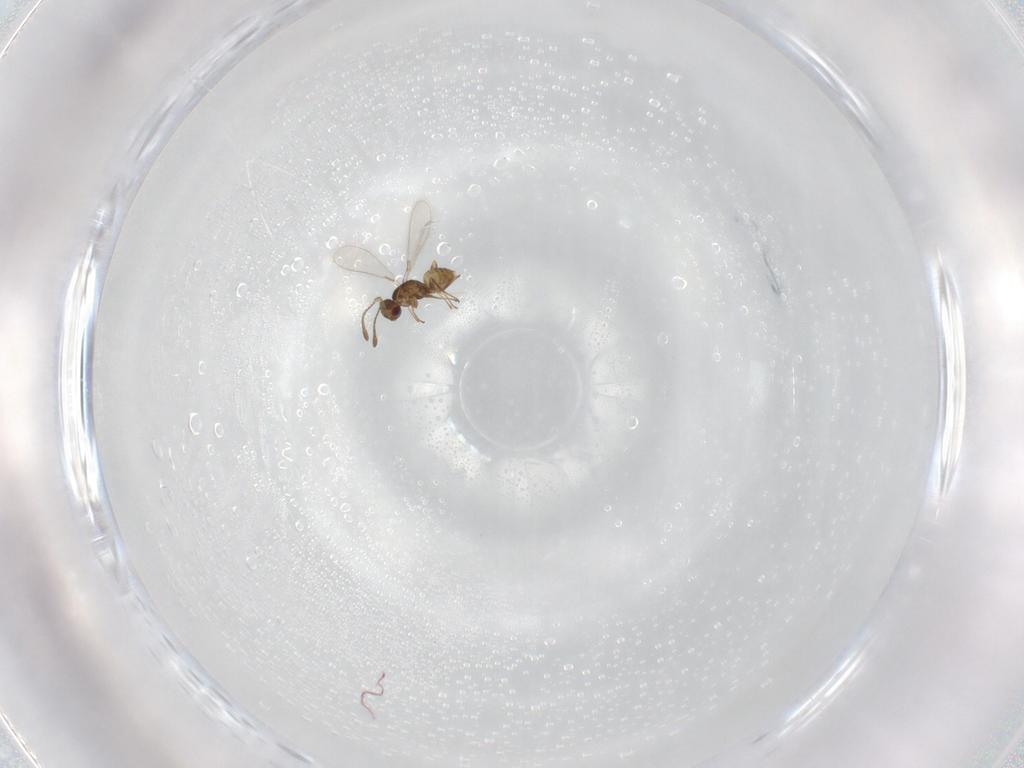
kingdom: Animalia
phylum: Arthropoda
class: Insecta
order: Hymenoptera
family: Mymaridae
